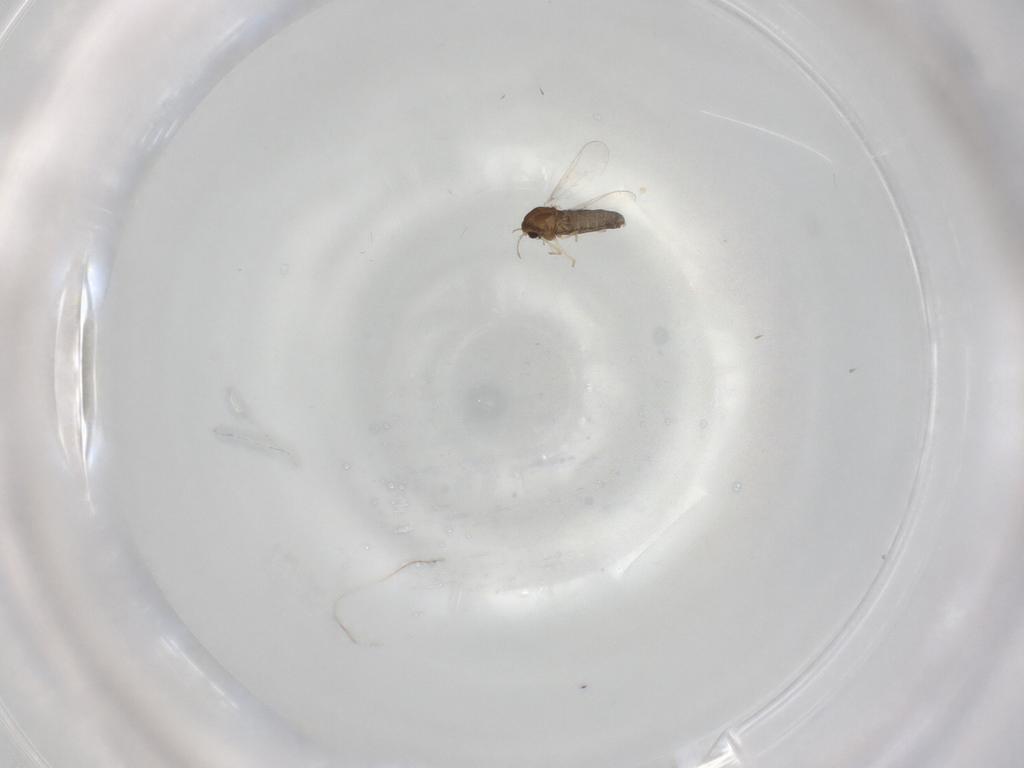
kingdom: Animalia
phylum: Arthropoda
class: Insecta
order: Diptera
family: Chironomidae
